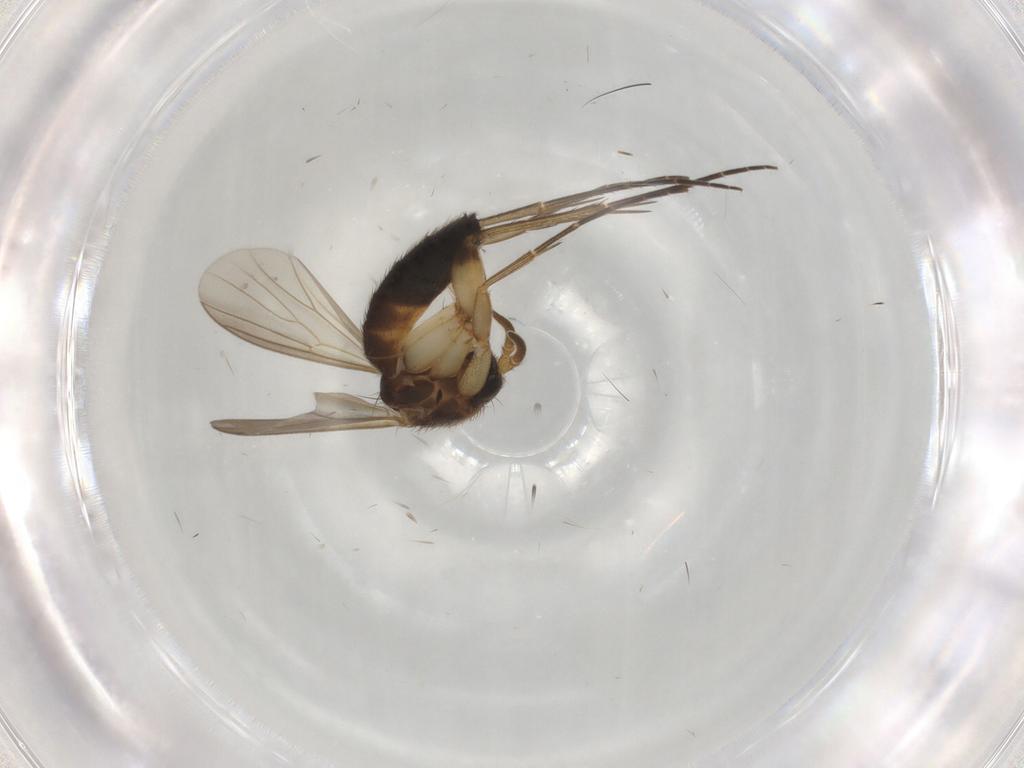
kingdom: Animalia
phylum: Arthropoda
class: Insecta
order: Diptera
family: Mycetophilidae
